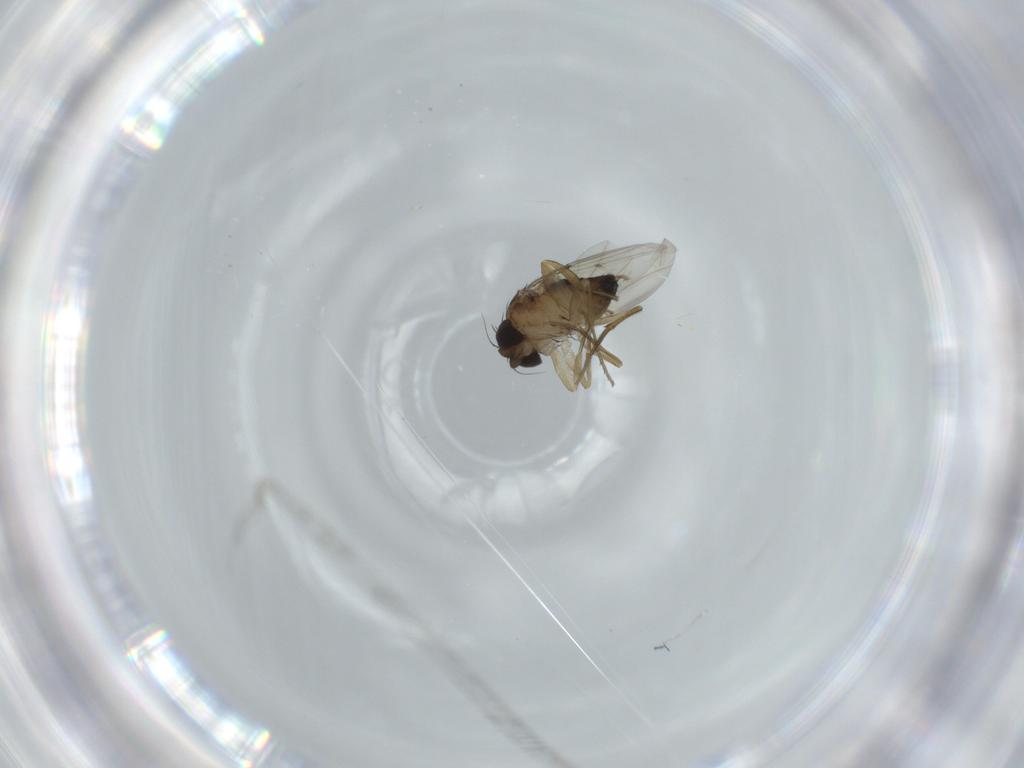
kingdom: Animalia
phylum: Arthropoda
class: Insecta
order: Diptera
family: Phoridae
